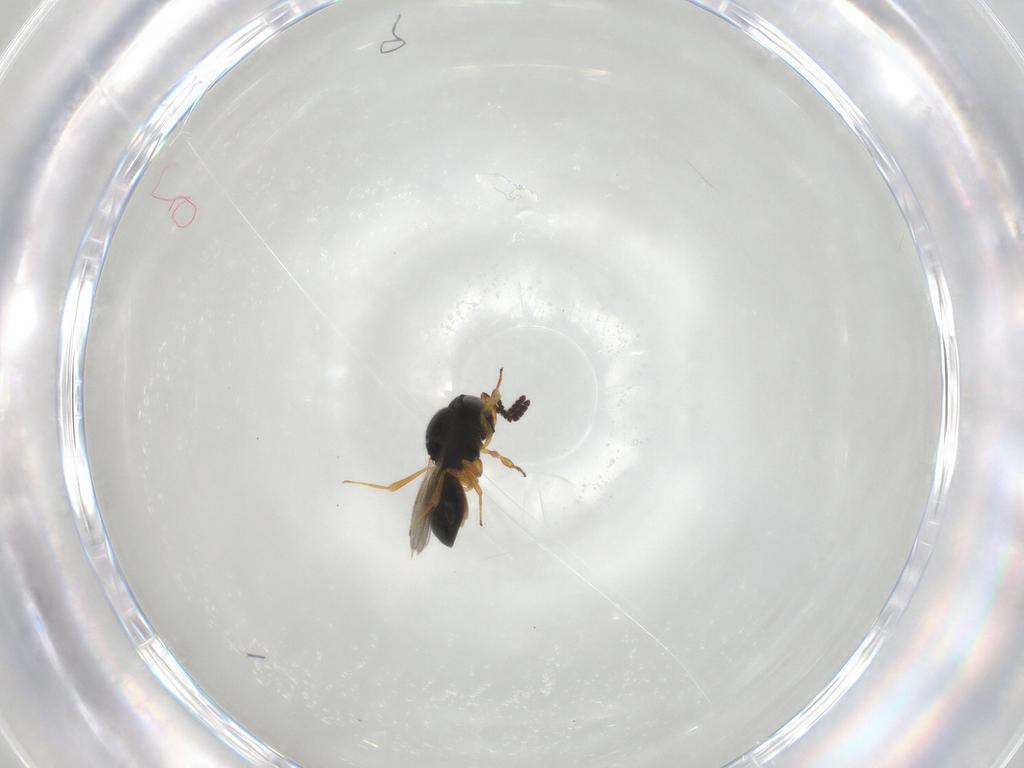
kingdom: Animalia
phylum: Arthropoda
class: Insecta
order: Hymenoptera
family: Scelionidae
